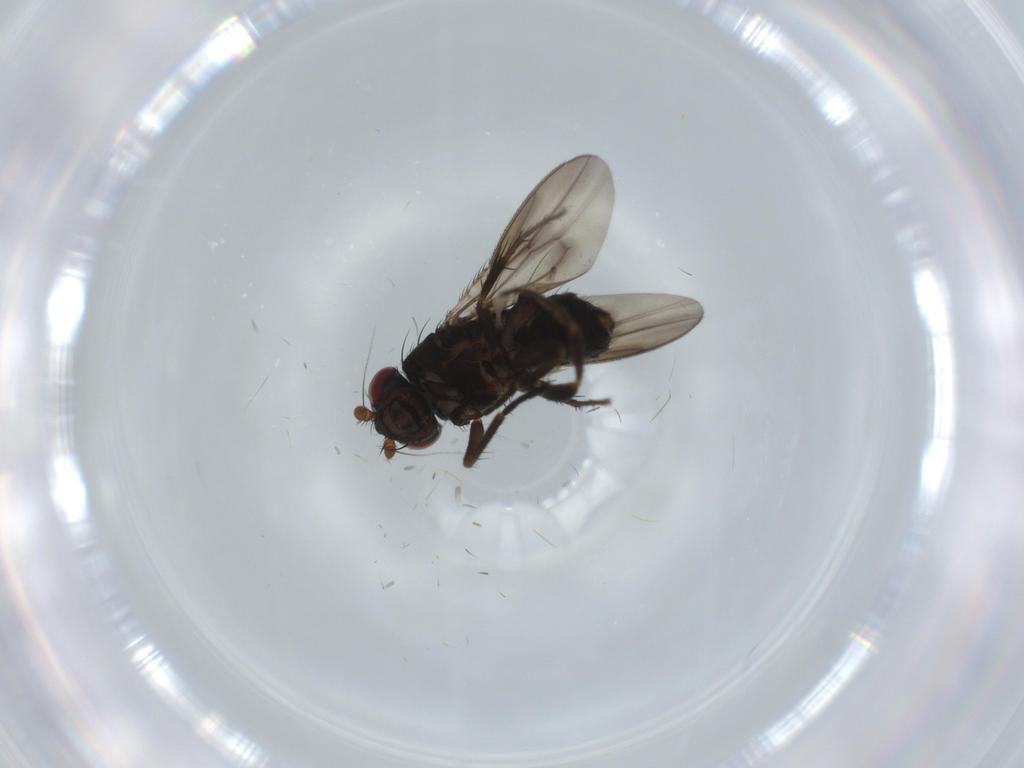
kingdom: Animalia
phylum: Arthropoda
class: Insecta
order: Diptera
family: Sciaridae
